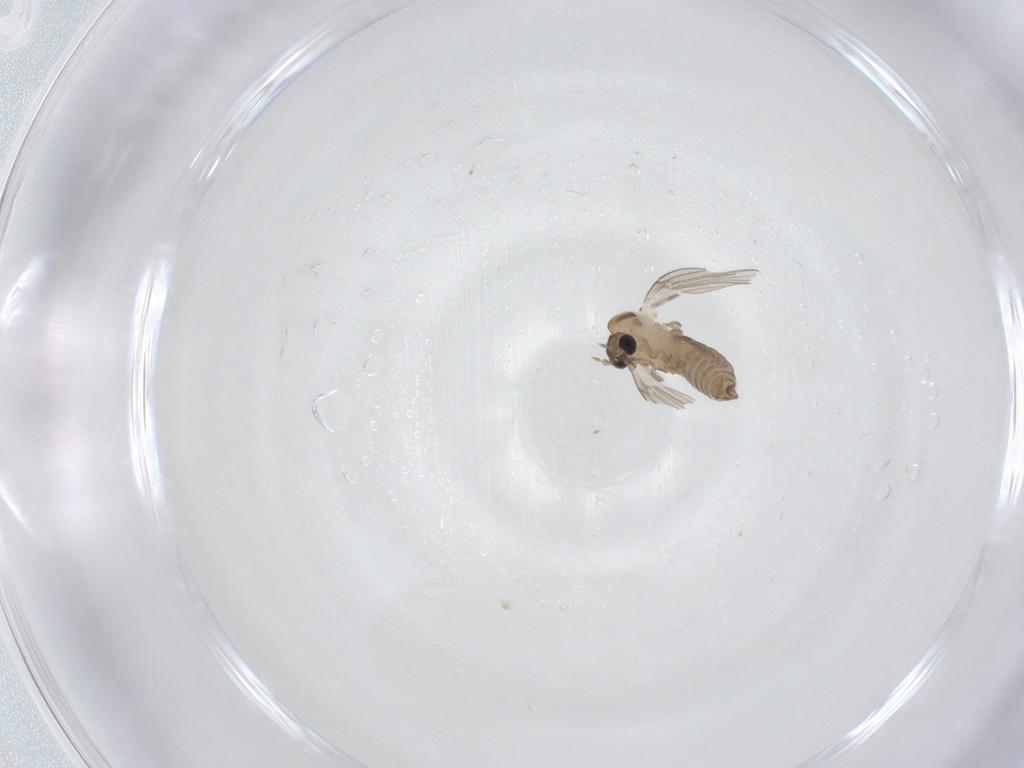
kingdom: Animalia
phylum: Arthropoda
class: Insecta
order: Diptera
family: Psychodidae
